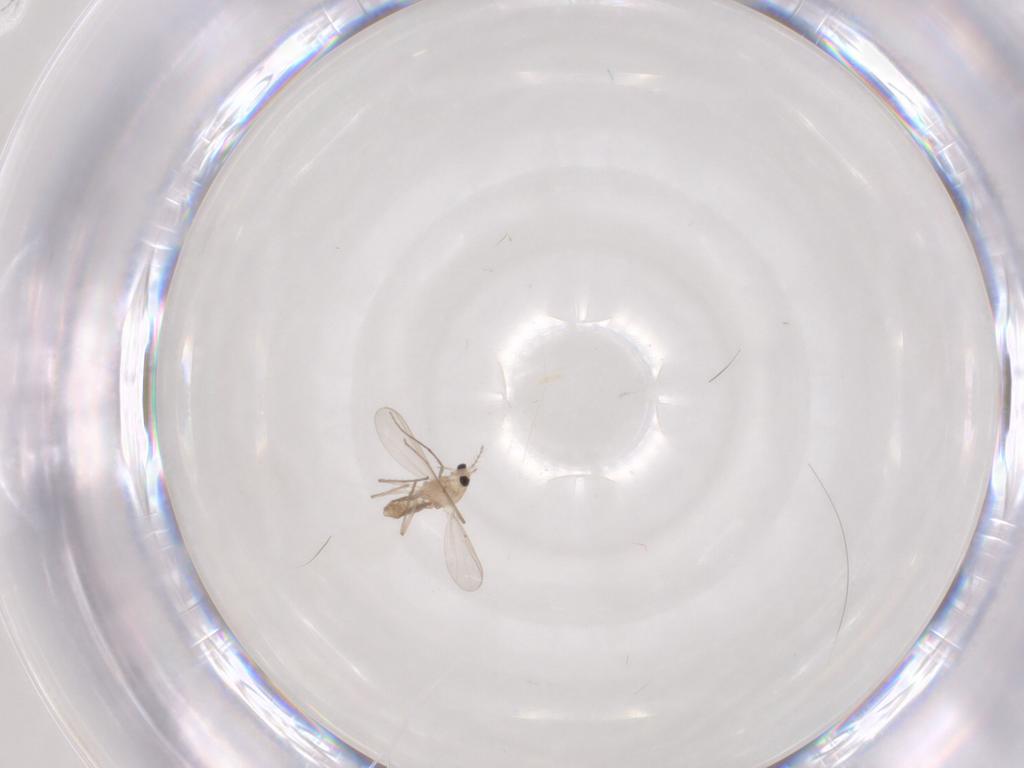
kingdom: Animalia
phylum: Arthropoda
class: Insecta
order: Diptera
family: Chironomidae
